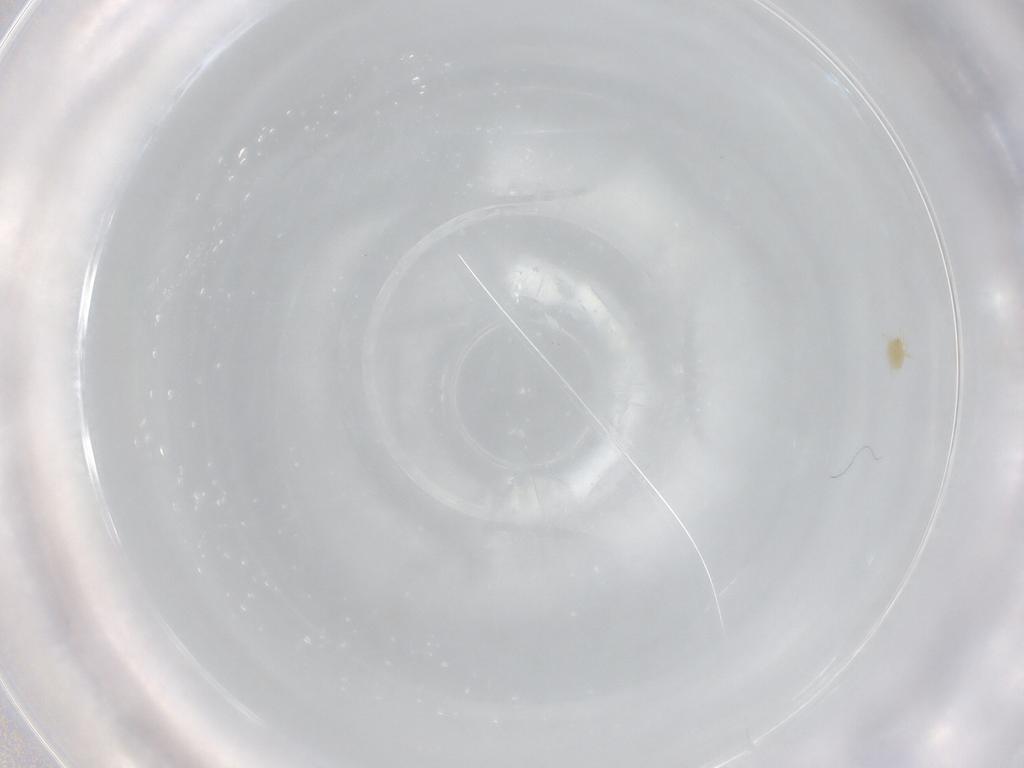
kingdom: Animalia
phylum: Arthropoda
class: Arachnida
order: Trombidiformes
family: Tetranychidae
